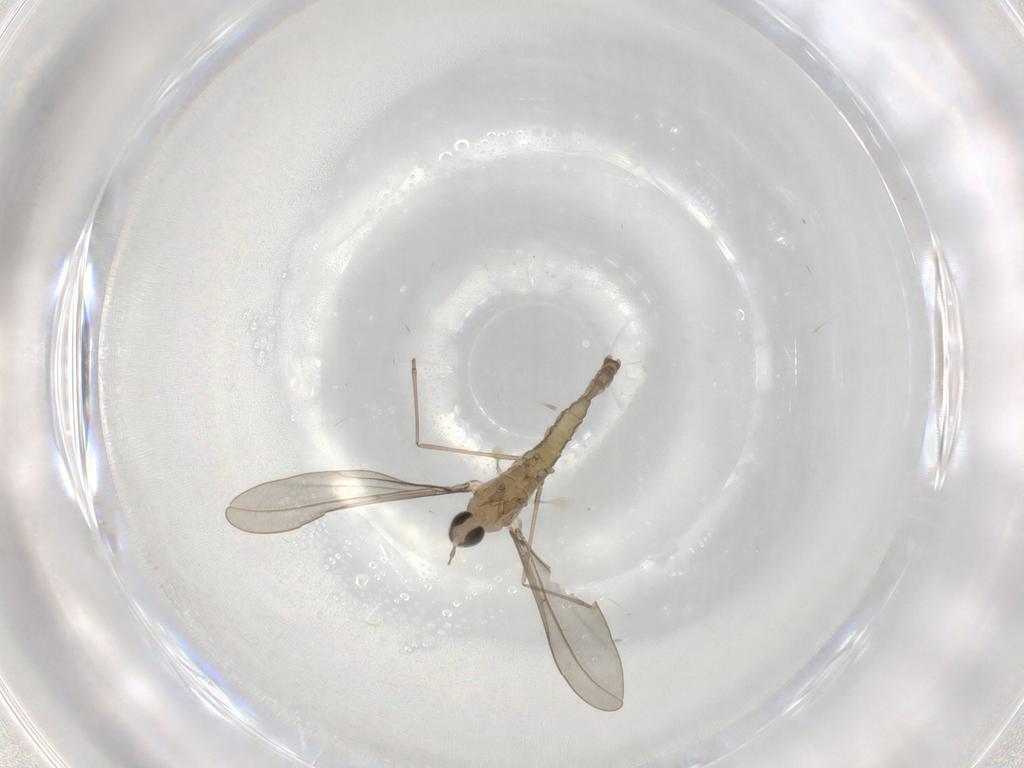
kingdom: Animalia
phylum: Arthropoda
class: Insecta
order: Diptera
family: Cecidomyiidae
